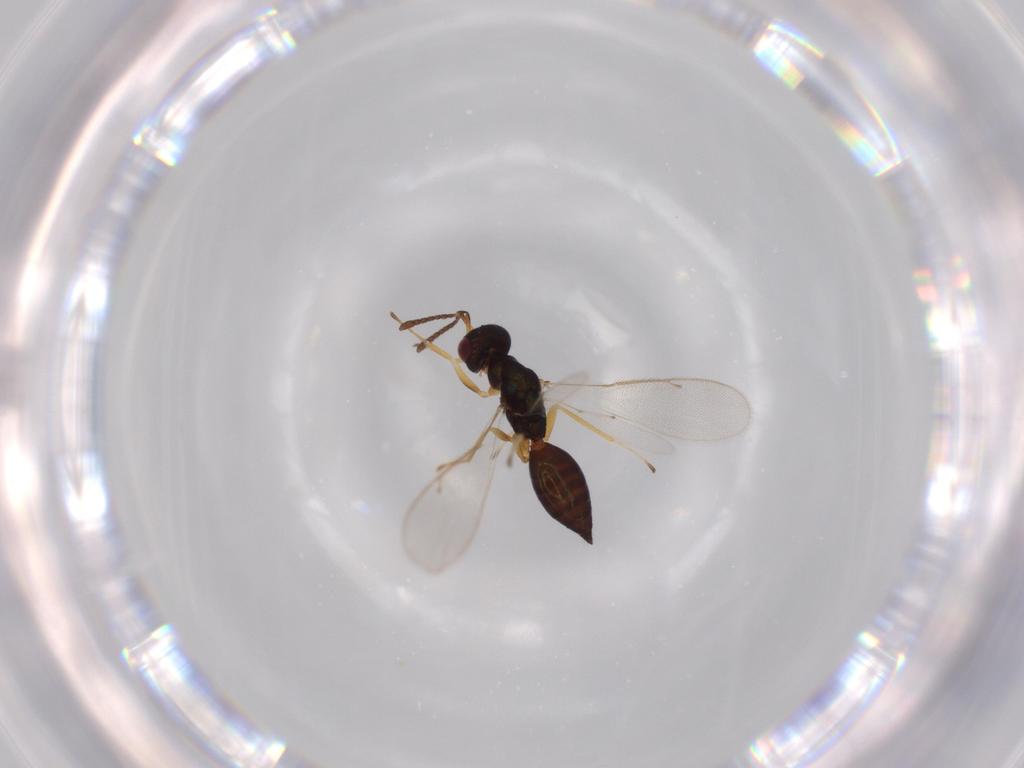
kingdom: Animalia
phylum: Arthropoda
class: Insecta
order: Hymenoptera
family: Pteromalidae
